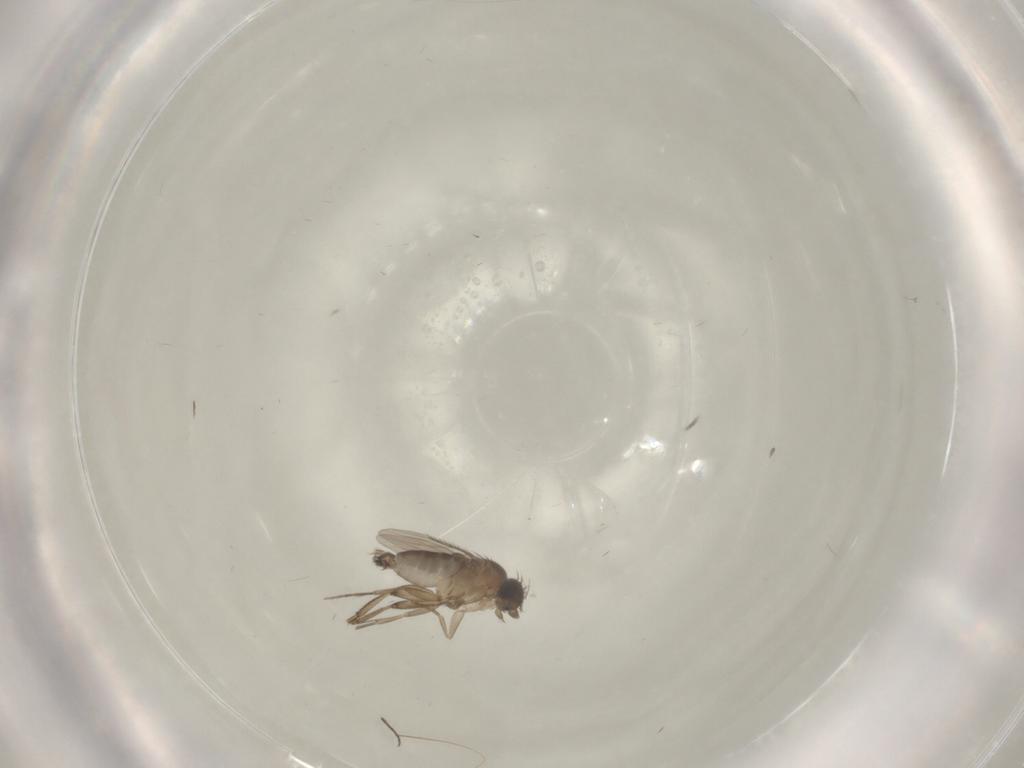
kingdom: Animalia
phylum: Arthropoda
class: Insecta
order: Diptera
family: Phoridae
